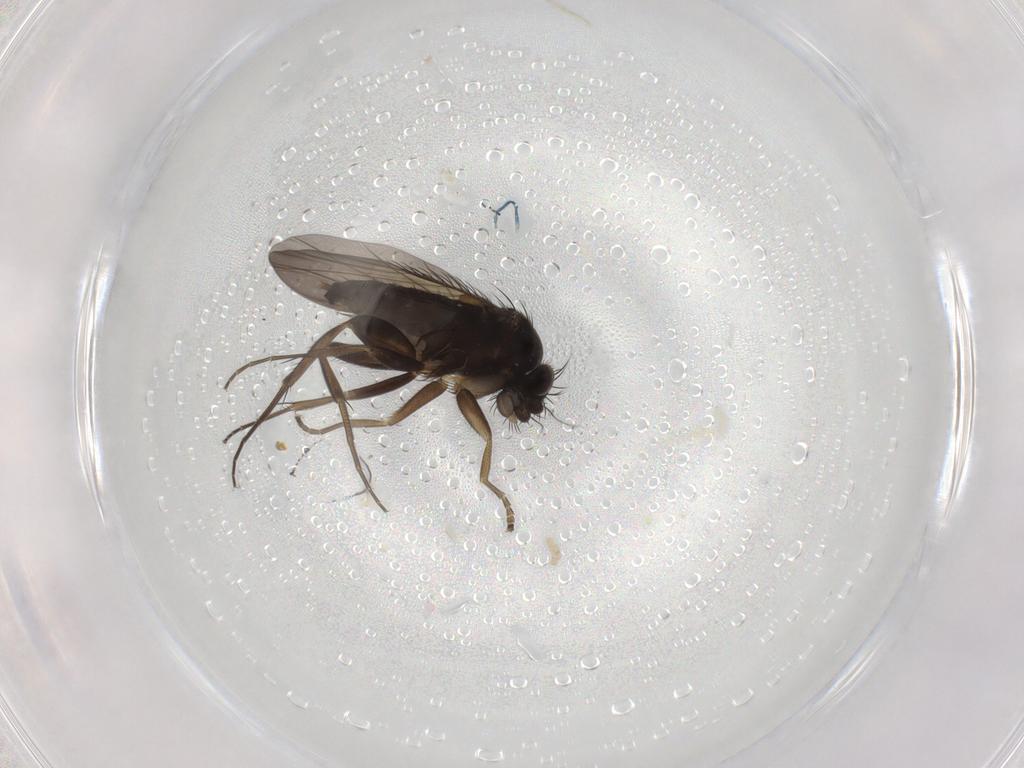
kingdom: Animalia
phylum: Arthropoda
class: Insecta
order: Diptera
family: Phoridae
